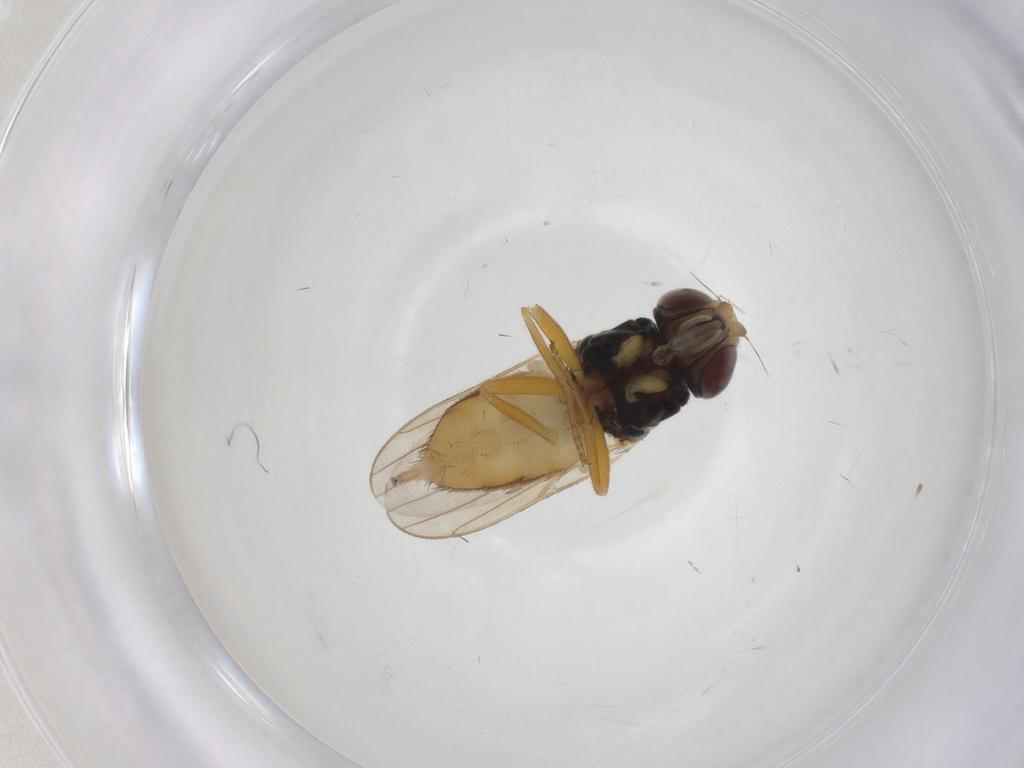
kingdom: Animalia
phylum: Arthropoda
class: Insecta
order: Diptera
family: Chloropidae
